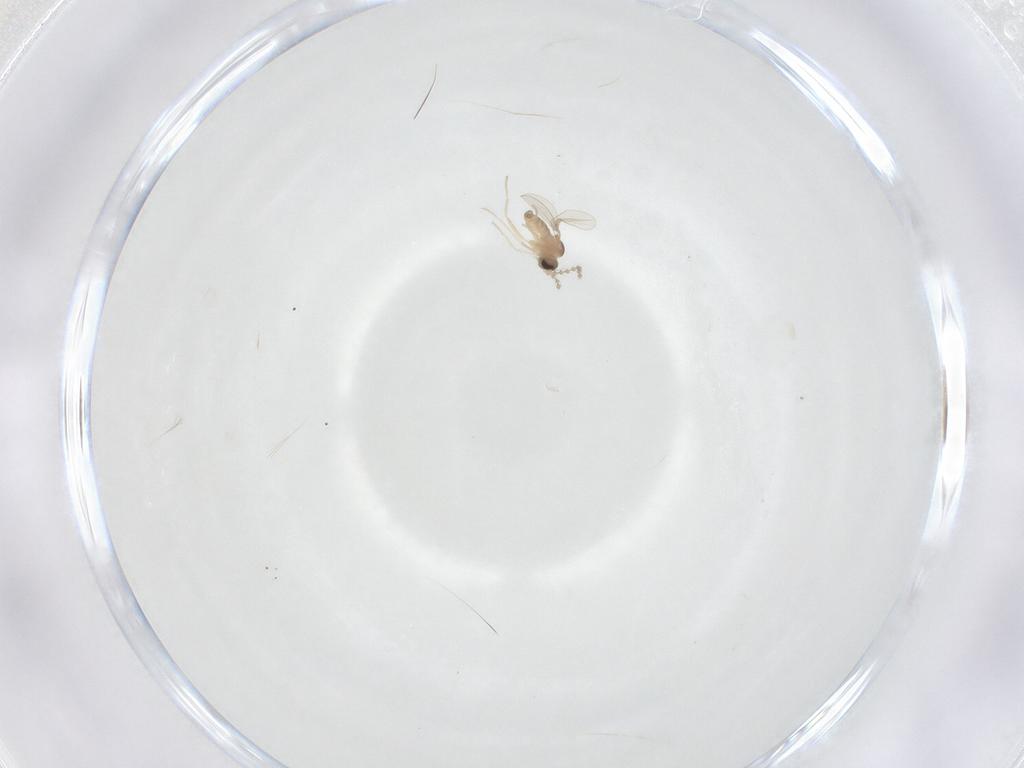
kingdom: Animalia
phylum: Arthropoda
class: Insecta
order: Diptera
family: Cecidomyiidae
